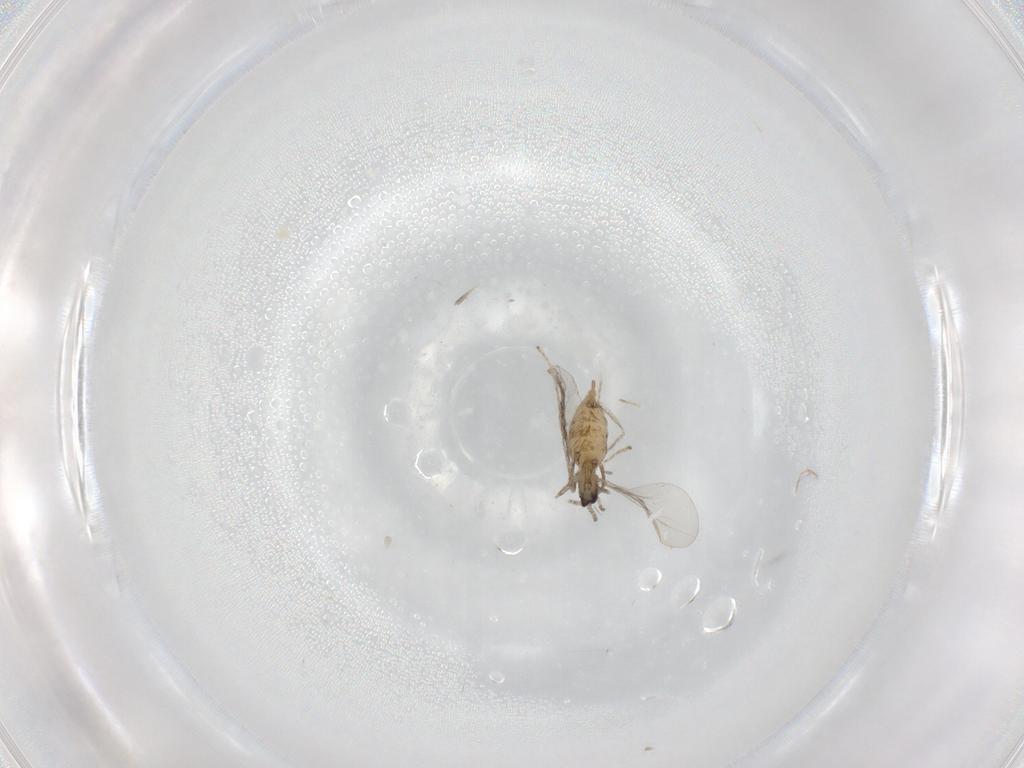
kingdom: Animalia
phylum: Arthropoda
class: Insecta
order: Diptera
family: Cecidomyiidae
